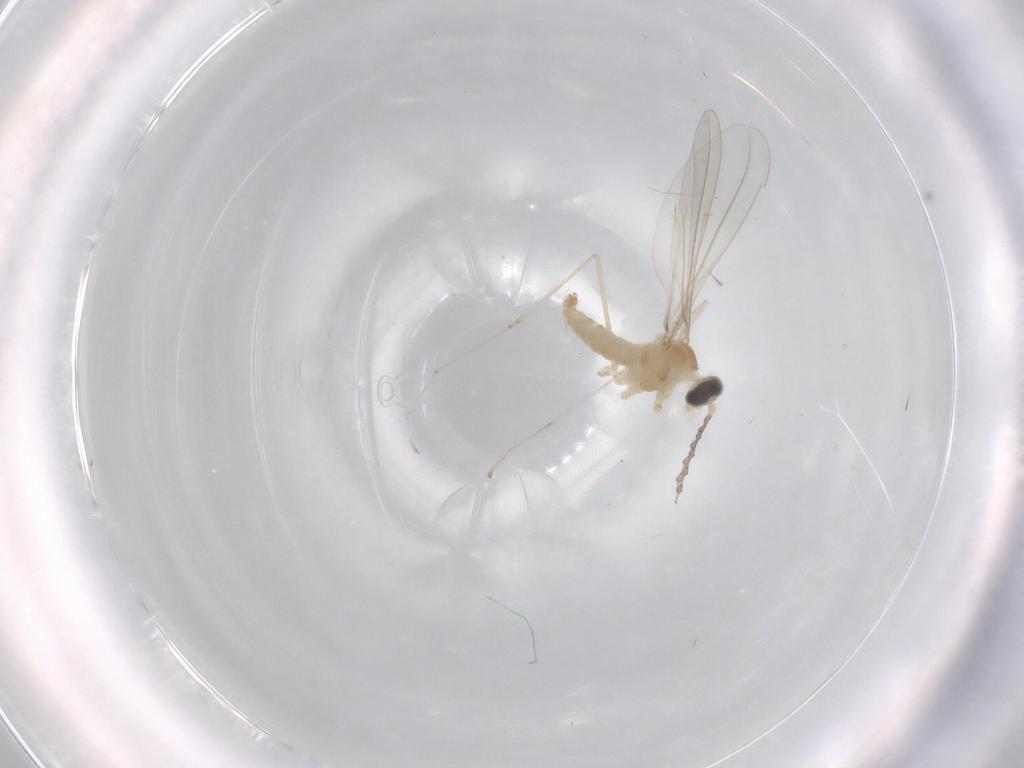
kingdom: Animalia
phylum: Arthropoda
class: Insecta
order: Diptera
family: Cecidomyiidae
